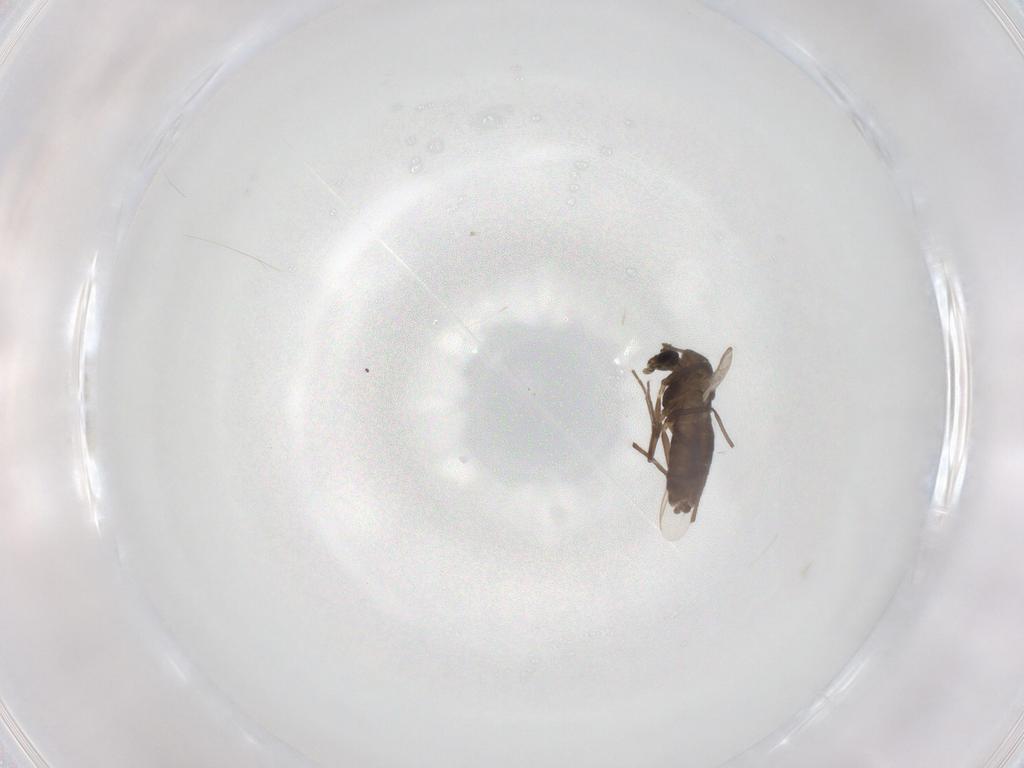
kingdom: Animalia
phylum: Arthropoda
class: Insecta
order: Diptera
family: Chironomidae
